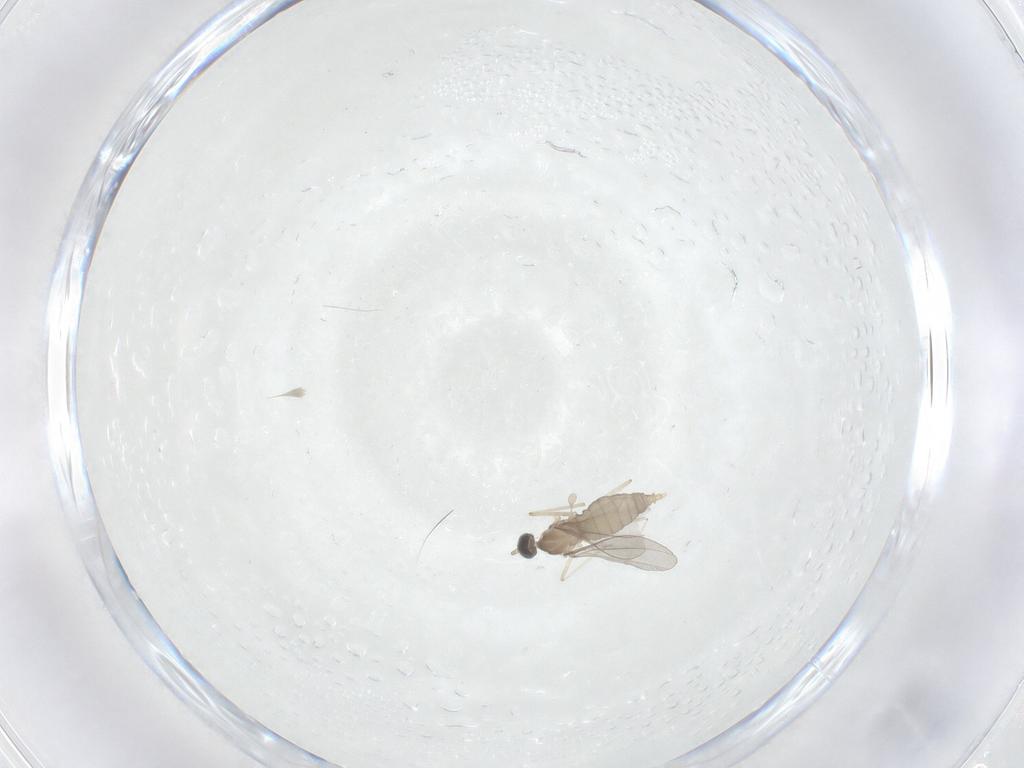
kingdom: Animalia
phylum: Arthropoda
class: Insecta
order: Diptera
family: Cecidomyiidae
